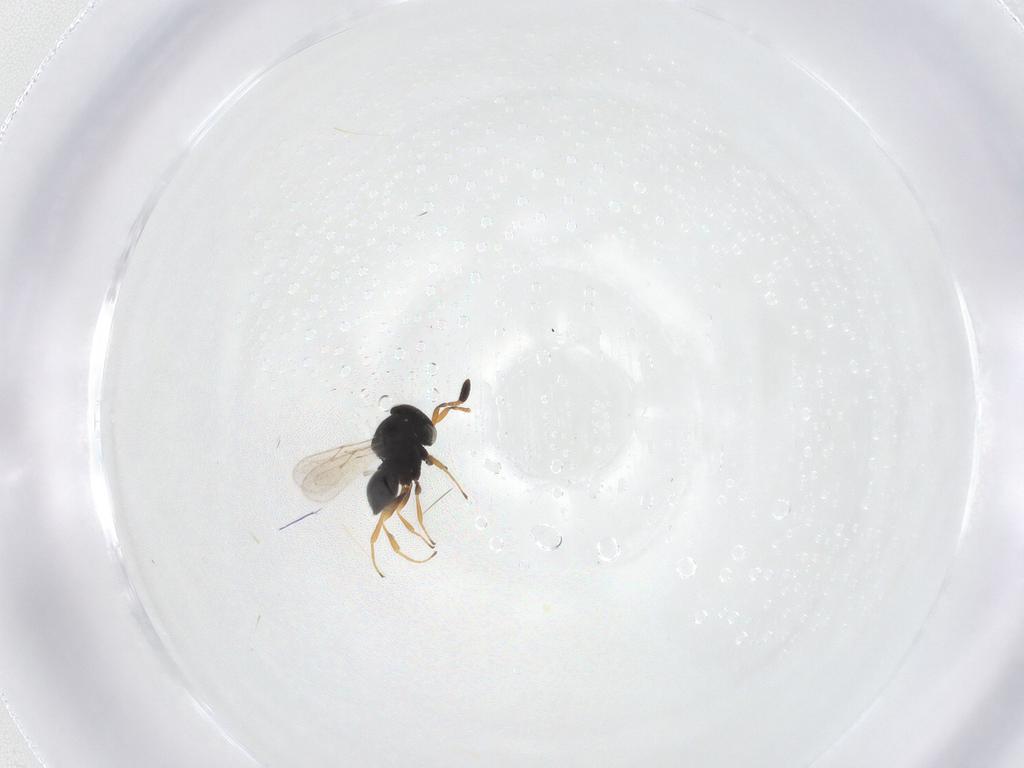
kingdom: Animalia
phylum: Arthropoda
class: Insecta
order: Hymenoptera
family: Scelionidae
